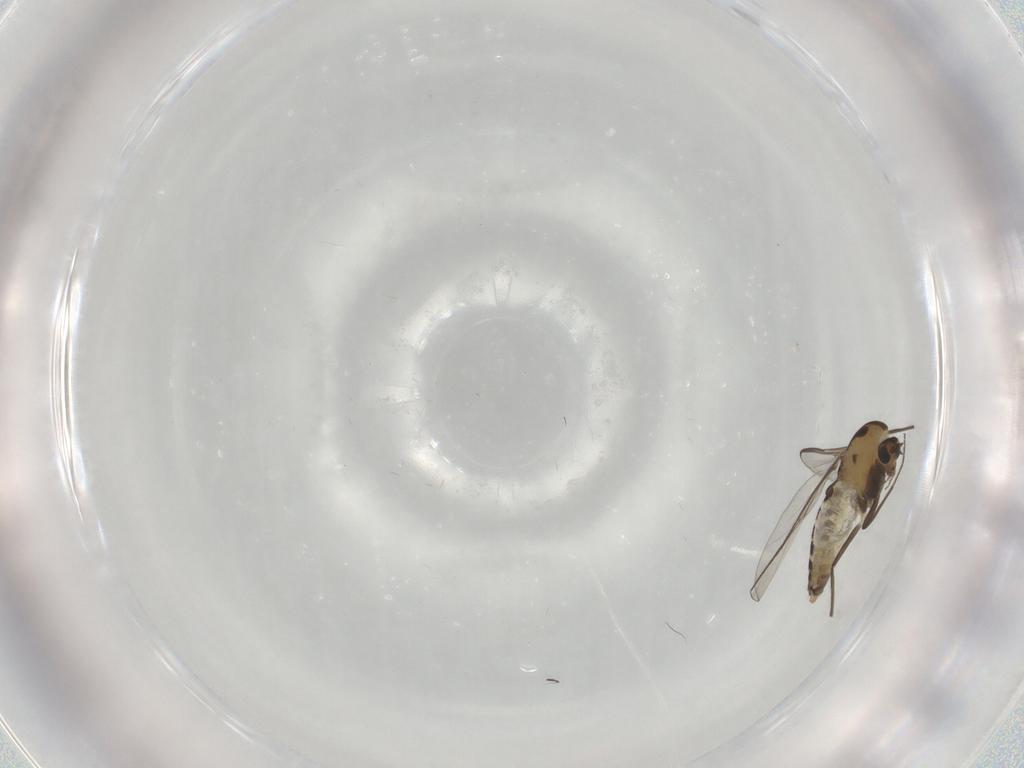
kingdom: Animalia
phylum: Arthropoda
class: Insecta
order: Diptera
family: Chironomidae
